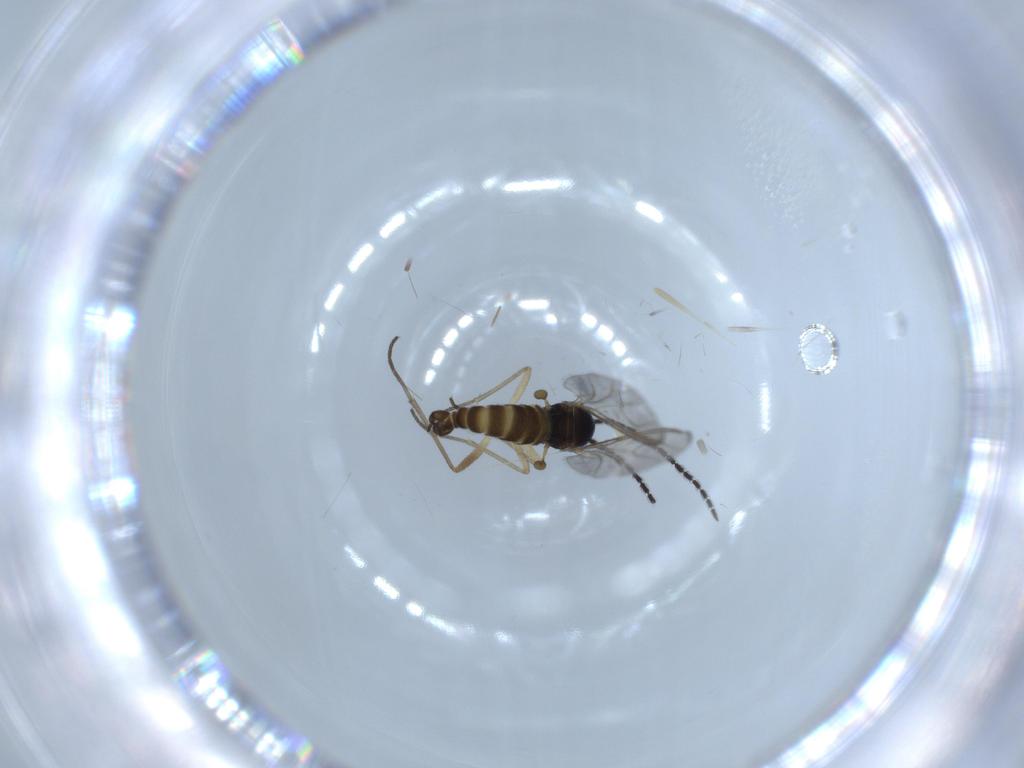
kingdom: Animalia
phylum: Arthropoda
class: Insecta
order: Diptera
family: Sciaridae
